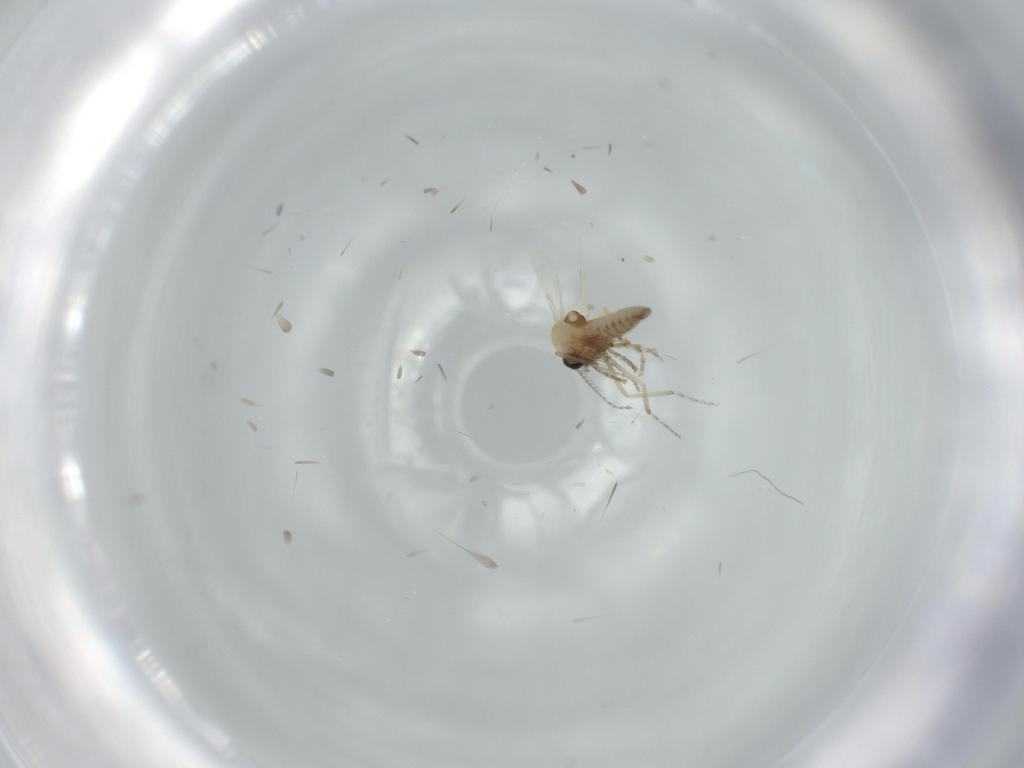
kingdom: Animalia
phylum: Arthropoda
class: Insecta
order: Diptera
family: Ceratopogonidae
